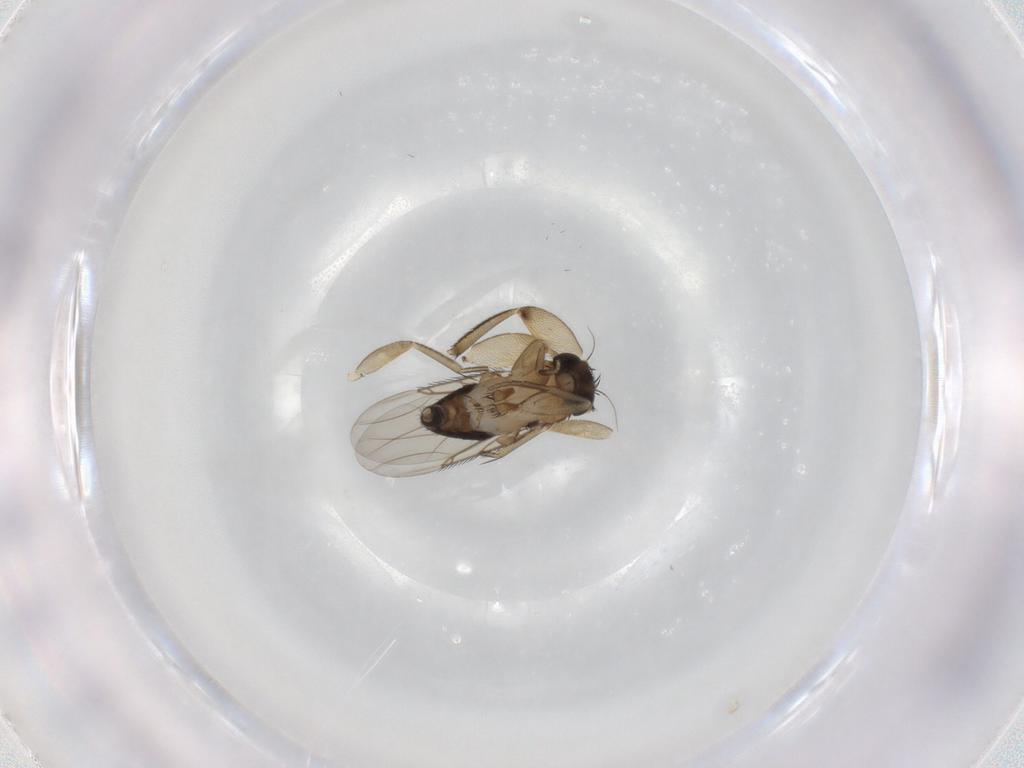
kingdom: Animalia
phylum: Arthropoda
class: Insecta
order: Diptera
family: Phoridae
